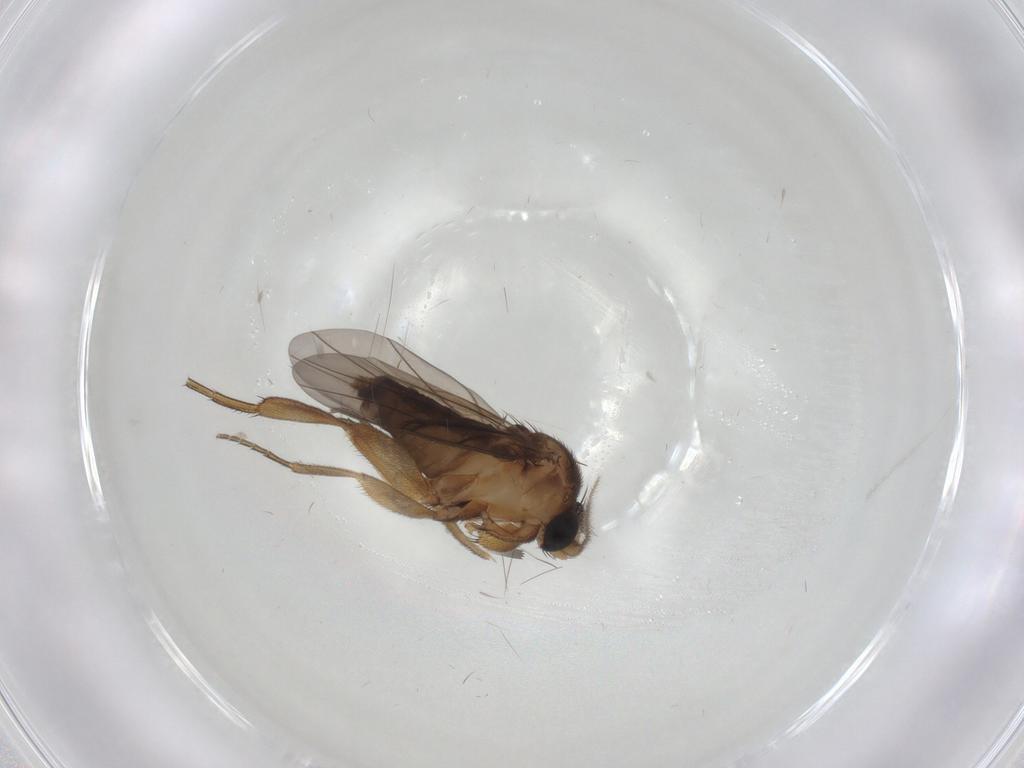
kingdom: Animalia
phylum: Arthropoda
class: Insecta
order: Diptera
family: Phoridae
